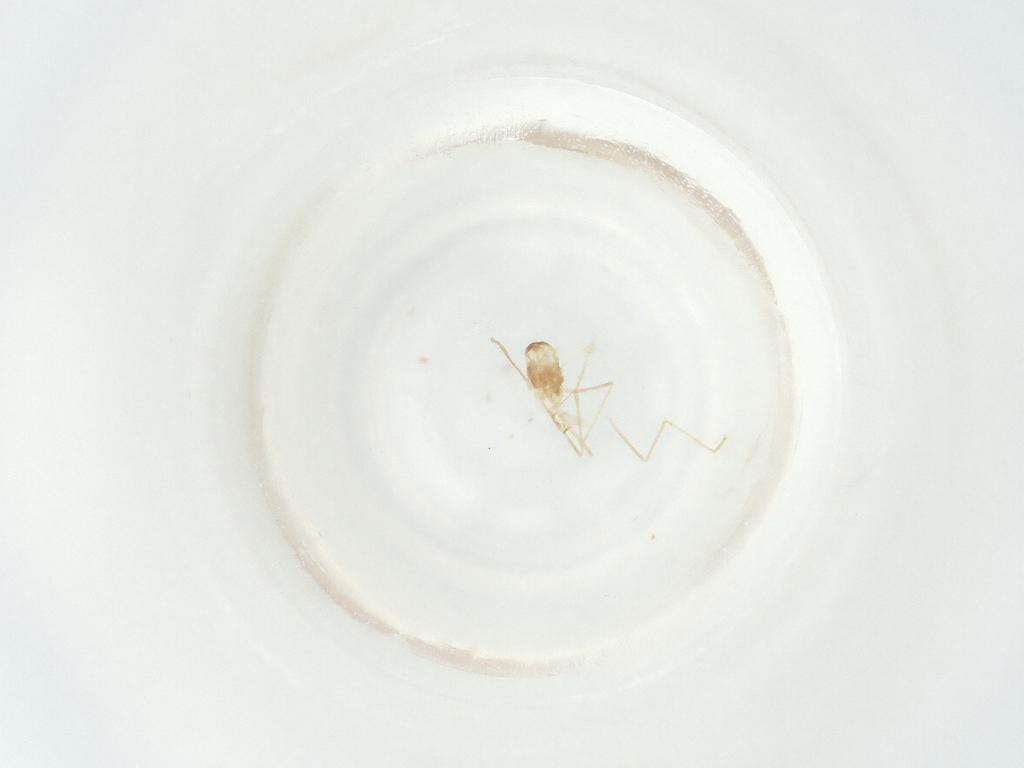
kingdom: Animalia
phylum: Arthropoda
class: Insecta
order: Diptera
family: Cecidomyiidae
